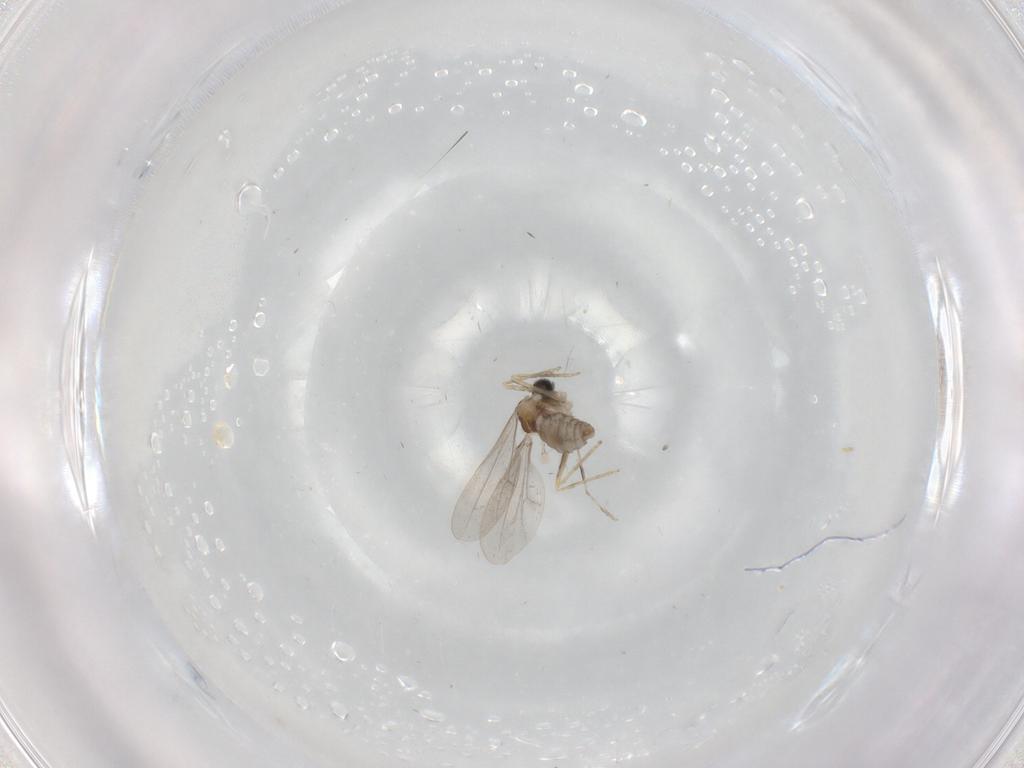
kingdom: Animalia
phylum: Arthropoda
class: Insecta
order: Diptera
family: Cecidomyiidae
